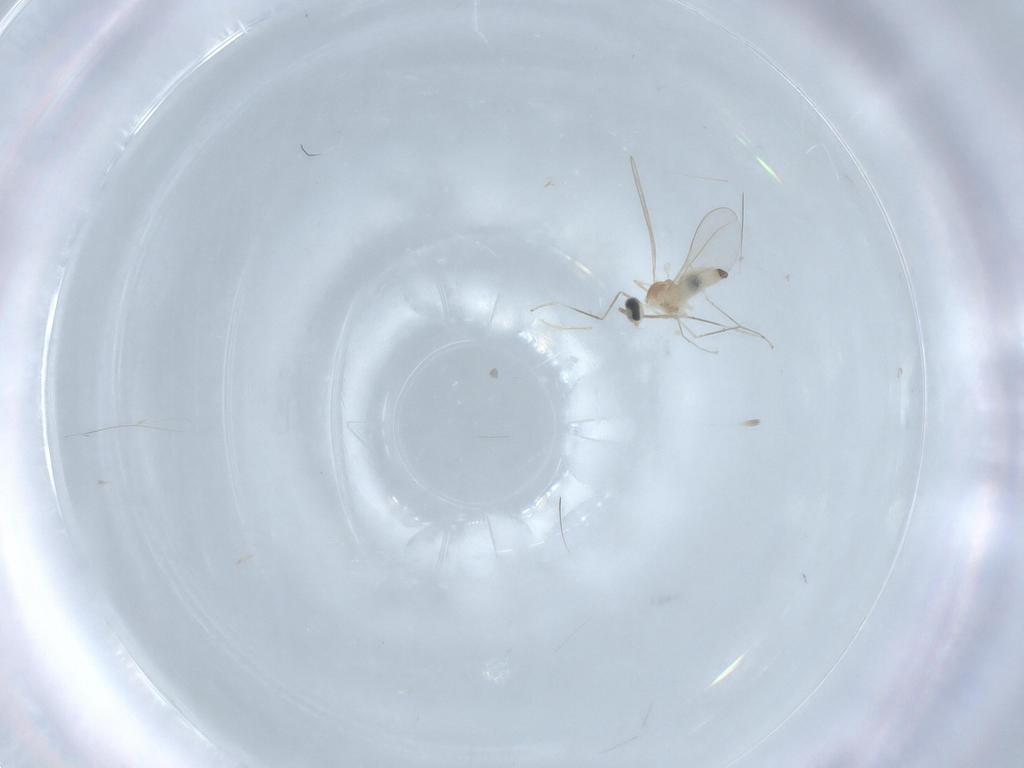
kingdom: Animalia
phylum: Arthropoda
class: Insecta
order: Diptera
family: Cecidomyiidae
